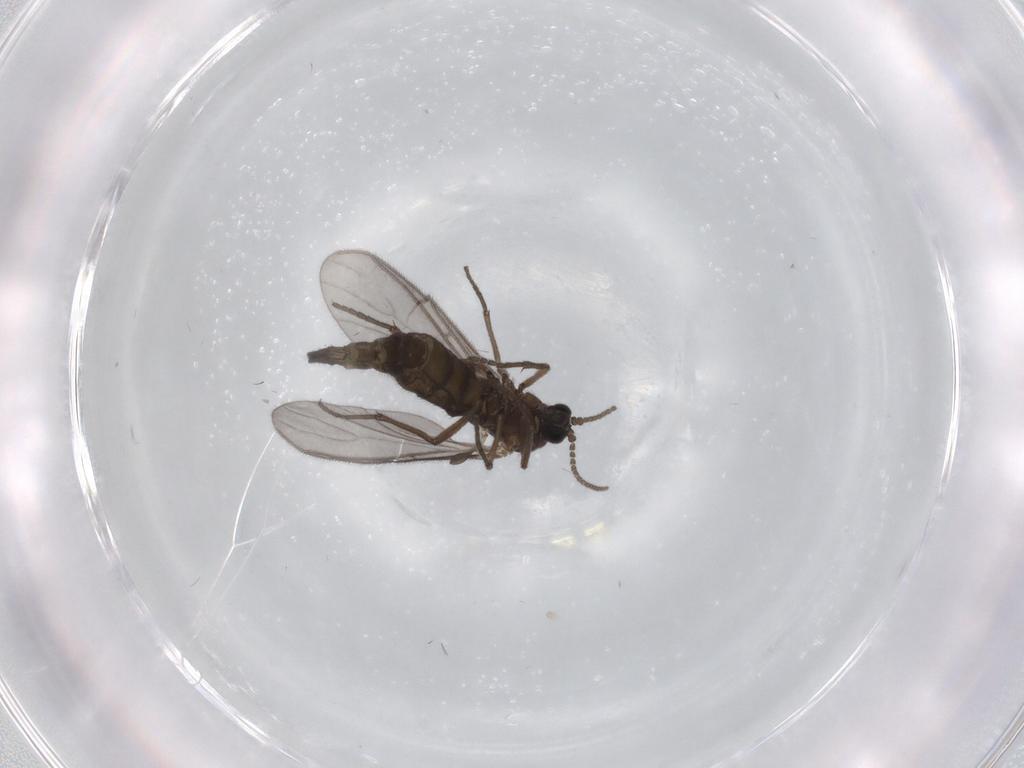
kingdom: Animalia
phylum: Arthropoda
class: Insecta
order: Diptera
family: Sciaridae
